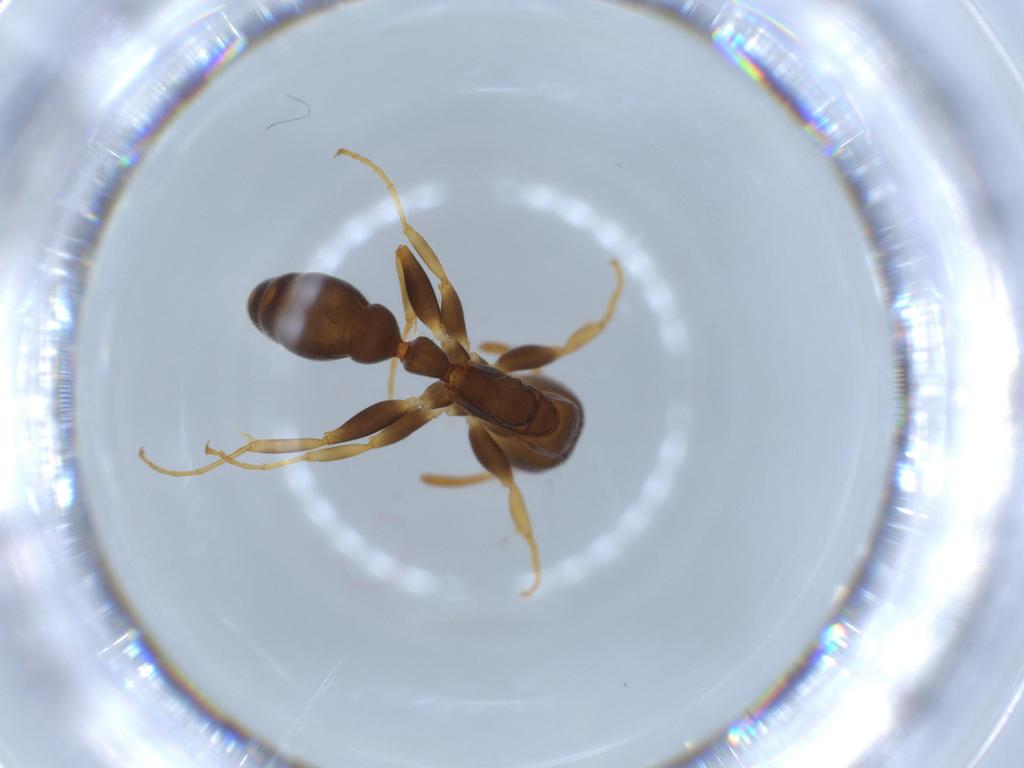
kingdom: Animalia
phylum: Arthropoda
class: Insecta
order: Hymenoptera
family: Formicidae
